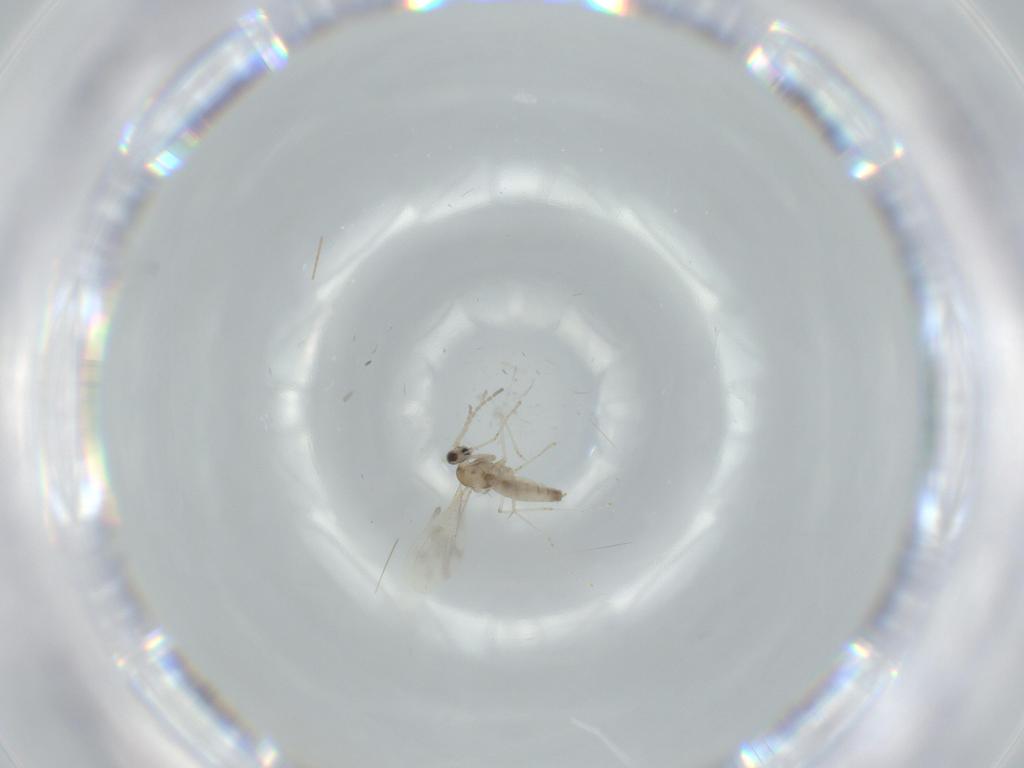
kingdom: Animalia
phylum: Arthropoda
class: Insecta
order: Diptera
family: Cecidomyiidae
